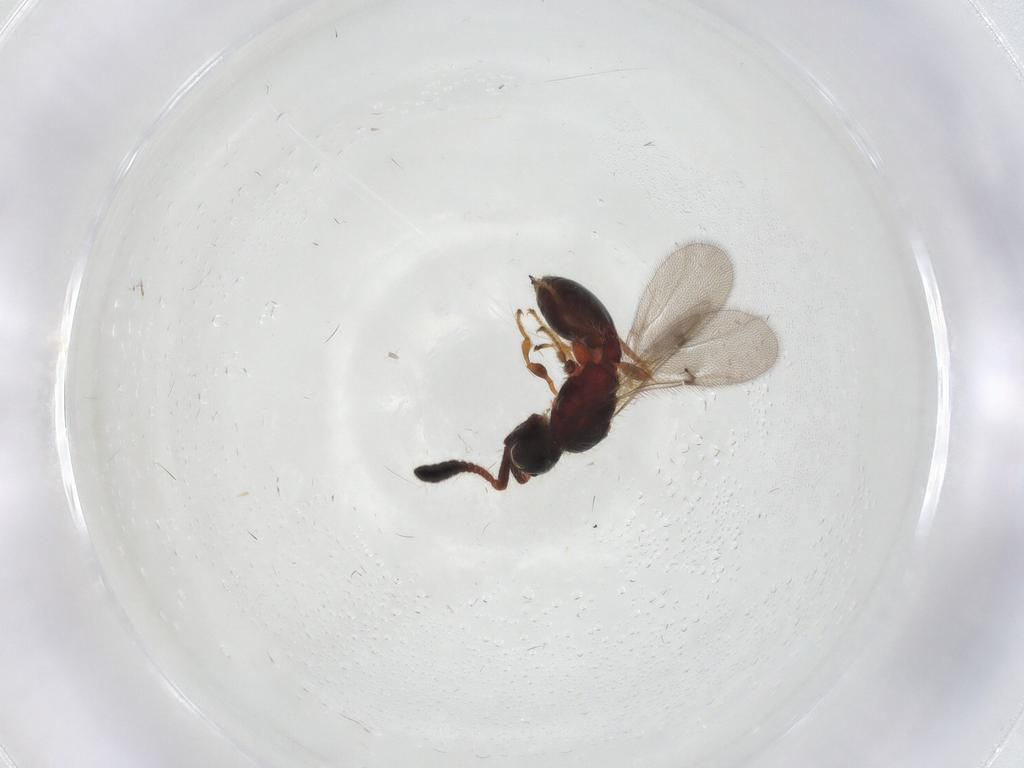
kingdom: Animalia
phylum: Arthropoda
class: Insecta
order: Hymenoptera
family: Diapriidae
